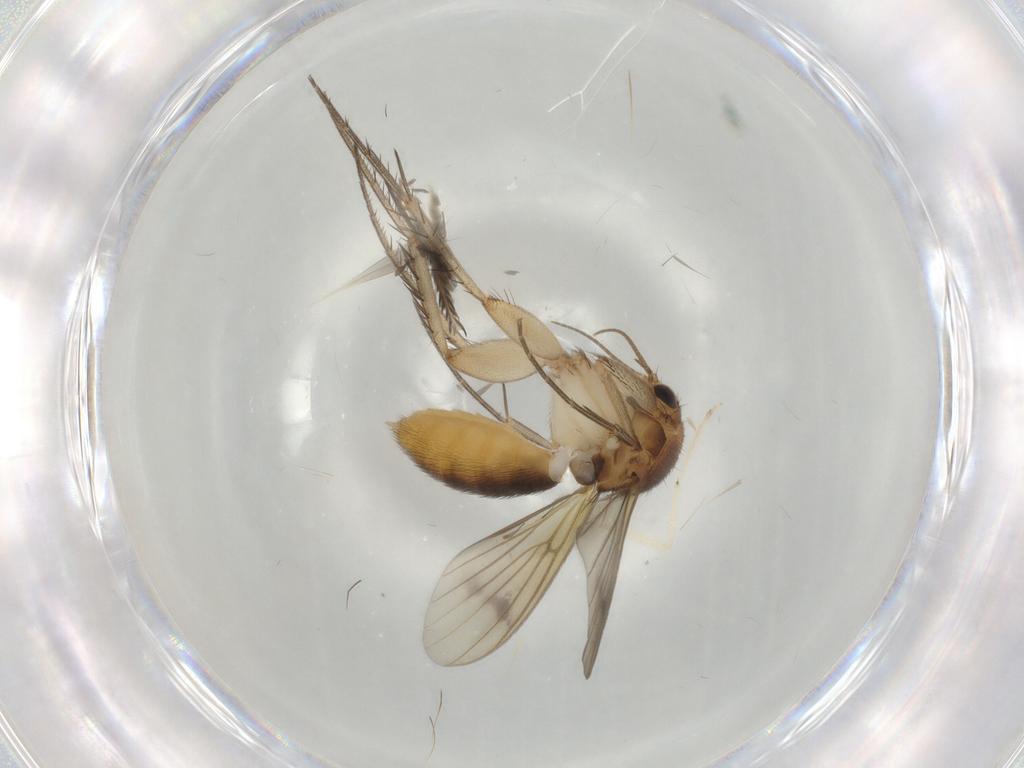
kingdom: Animalia
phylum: Arthropoda
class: Insecta
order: Diptera
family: Mycetophilidae
